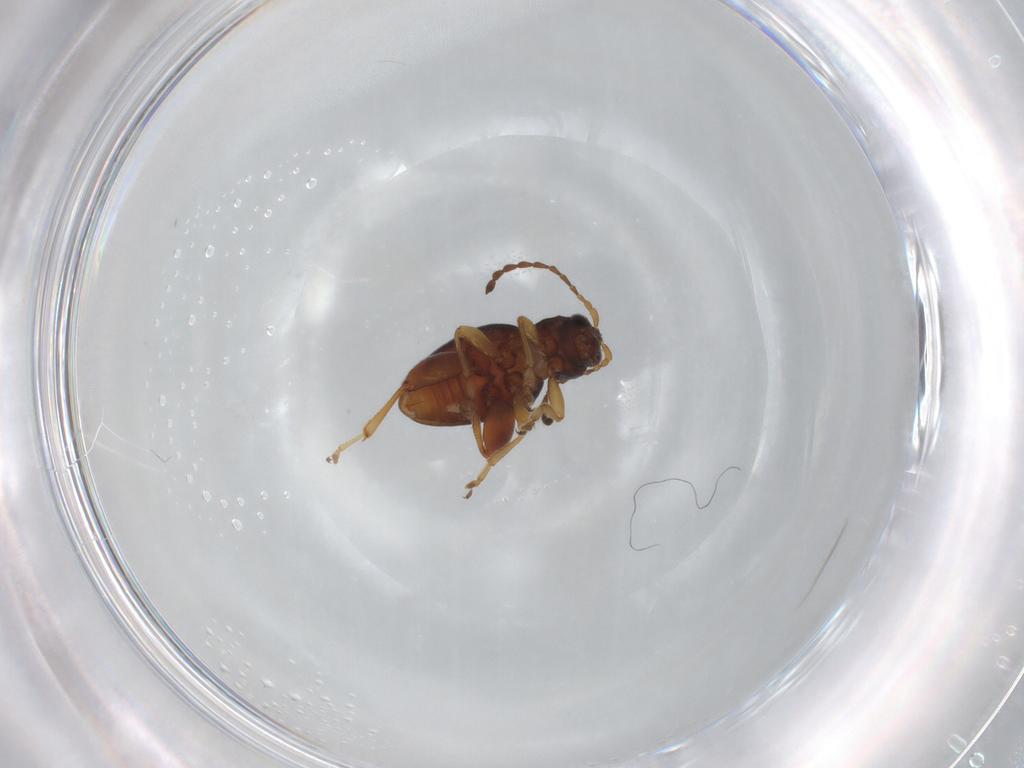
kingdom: Animalia
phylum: Arthropoda
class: Insecta
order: Coleoptera
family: Chrysomelidae
